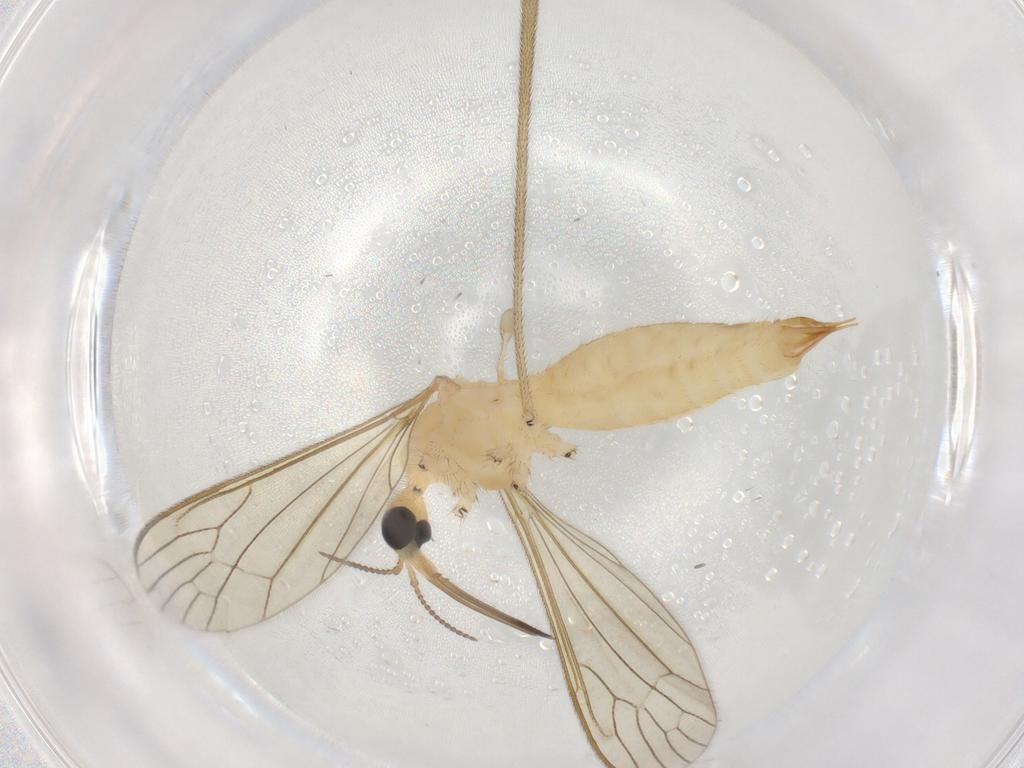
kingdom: Animalia
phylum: Arthropoda
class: Insecta
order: Diptera
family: Limoniidae
